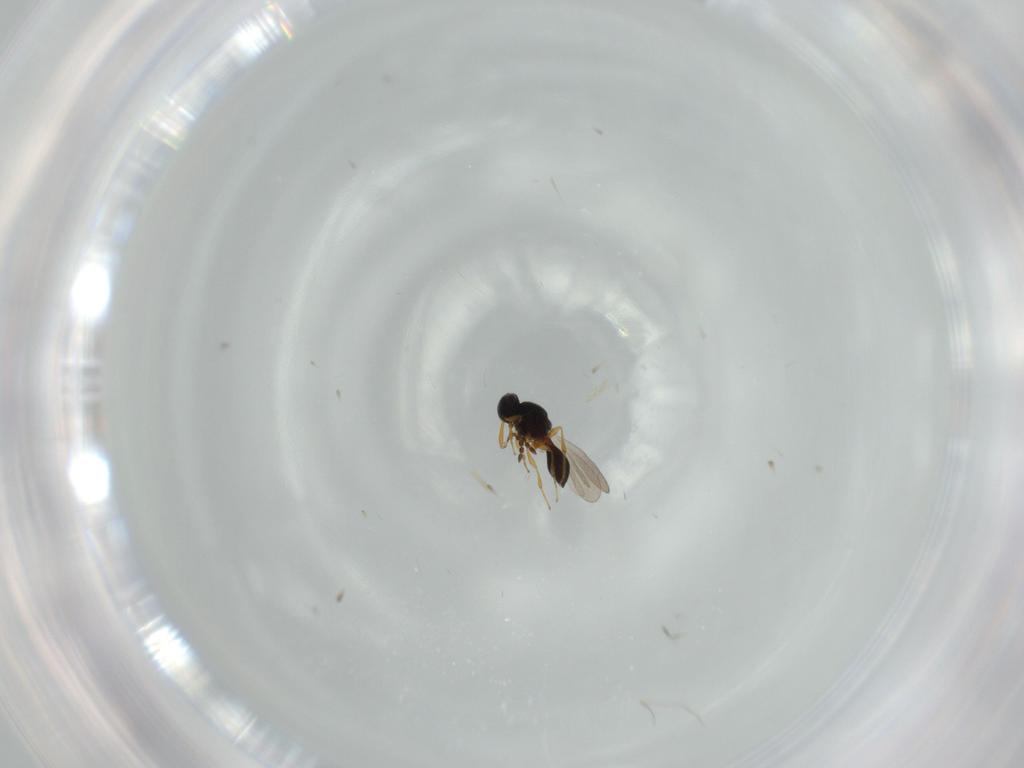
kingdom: Animalia
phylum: Arthropoda
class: Insecta
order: Hymenoptera
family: Platygastridae
